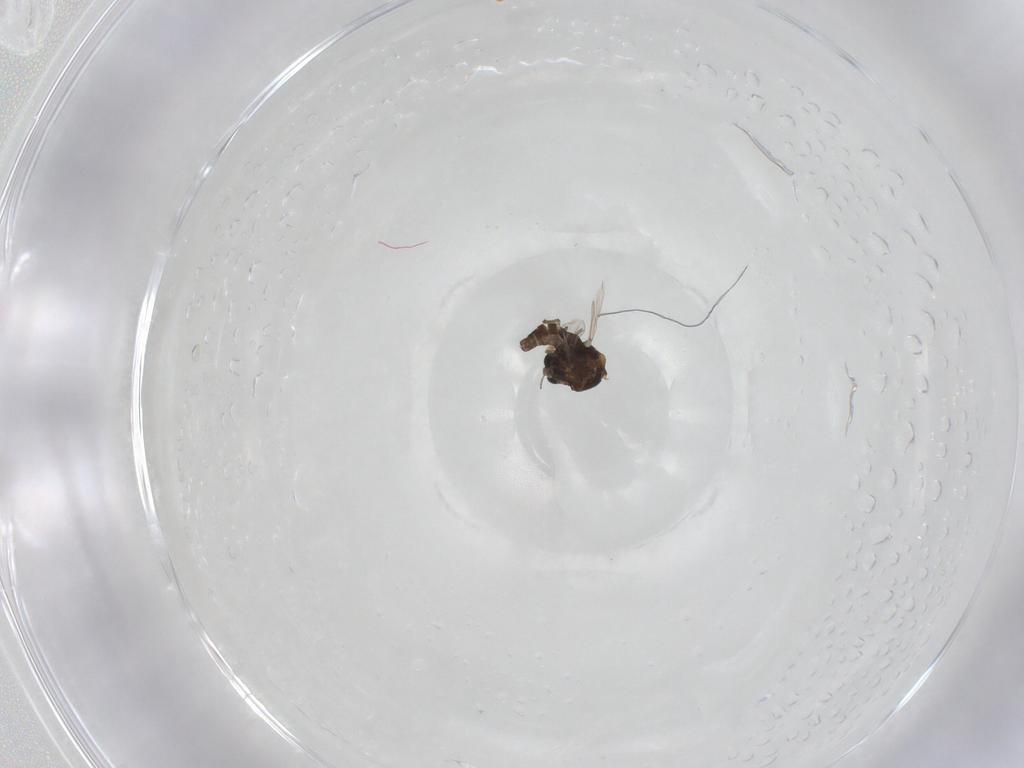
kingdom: Animalia
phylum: Arthropoda
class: Insecta
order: Diptera
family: Ceratopogonidae
